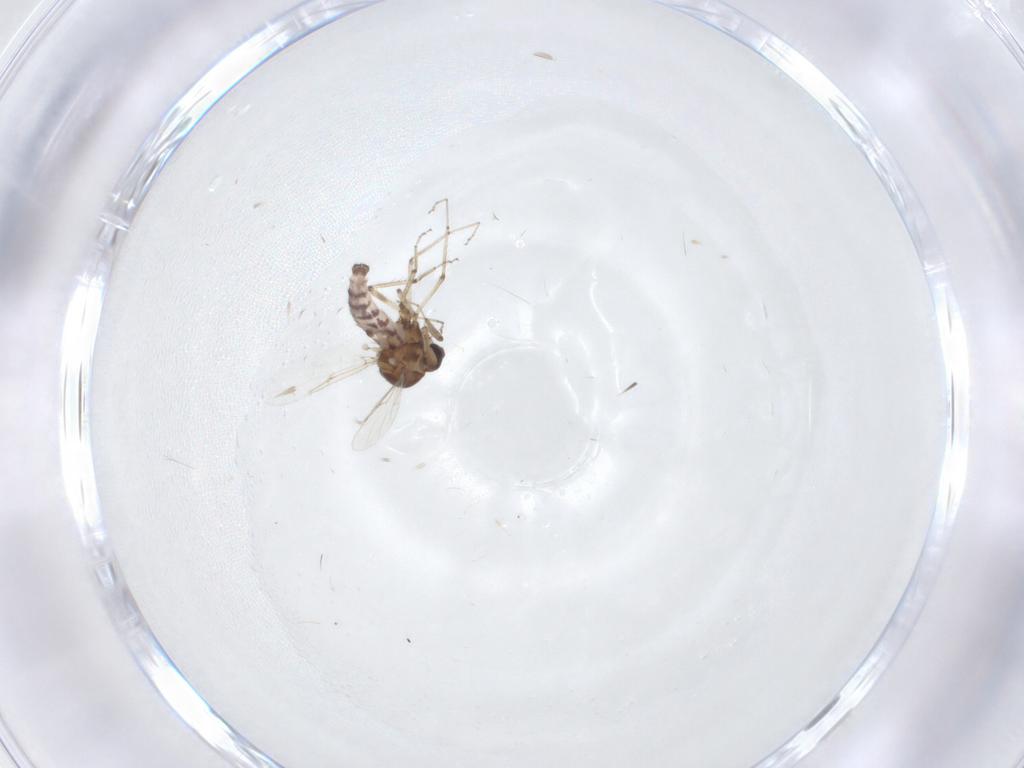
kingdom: Animalia
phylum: Arthropoda
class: Insecta
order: Diptera
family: Ceratopogonidae
